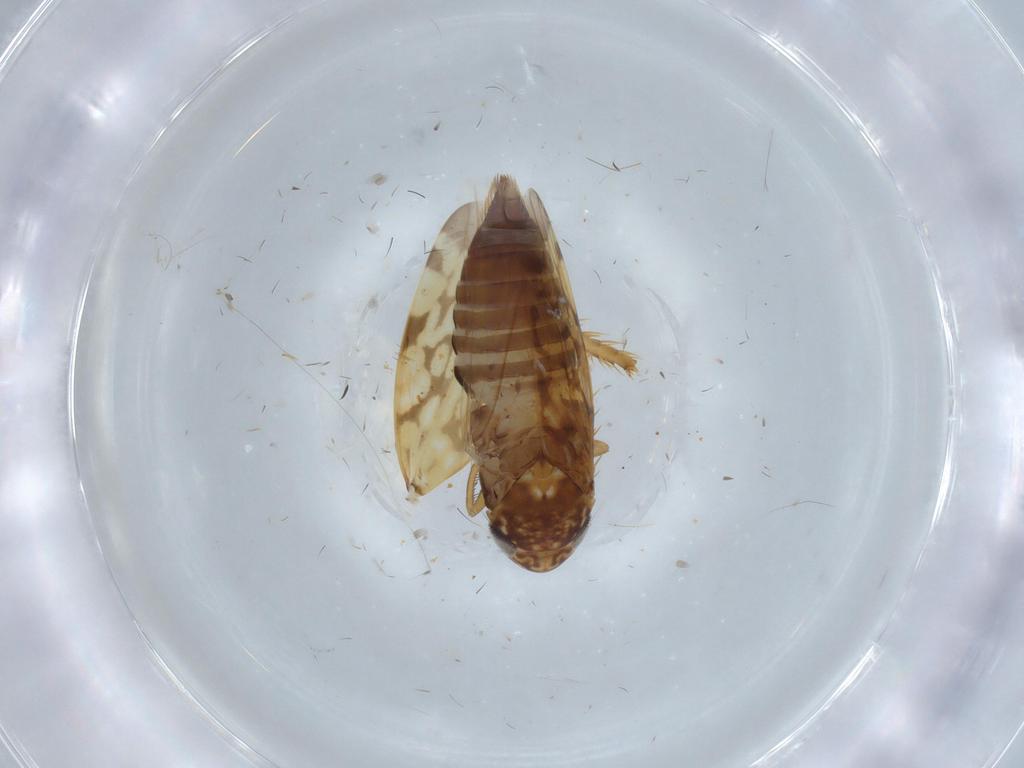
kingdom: Animalia
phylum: Arthropoda
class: Insecta
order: Hemiptera
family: Cicadellidae
